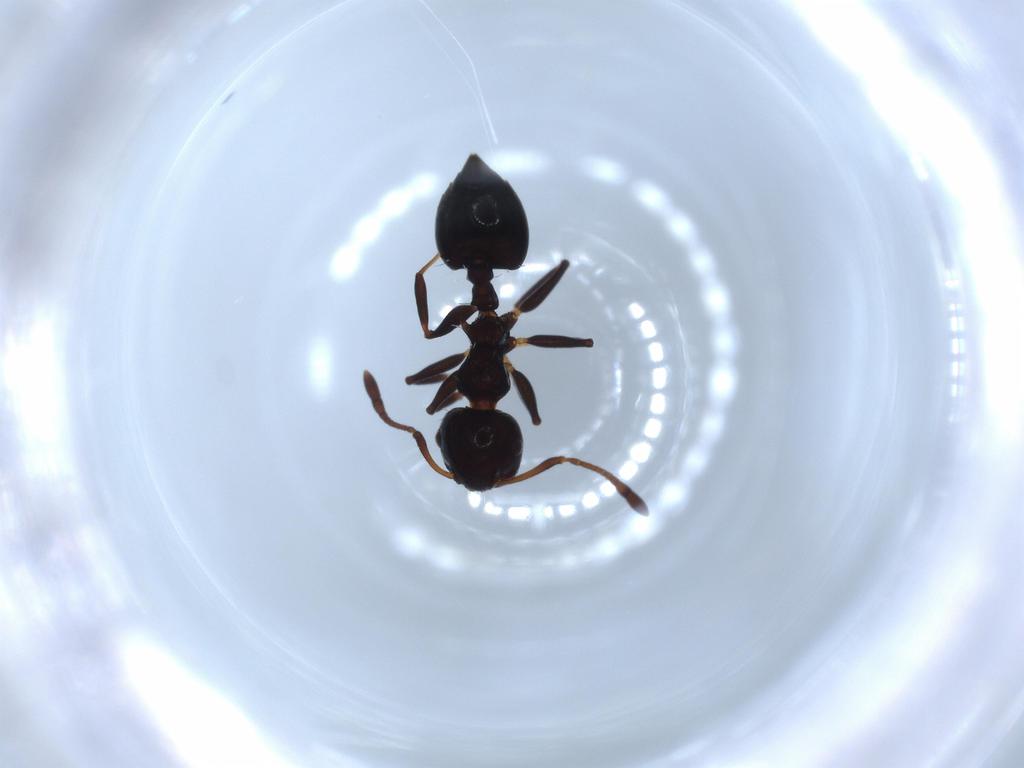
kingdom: Animalia
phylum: Arthropoda
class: Insecta
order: Hymenoptera
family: Formicidae
